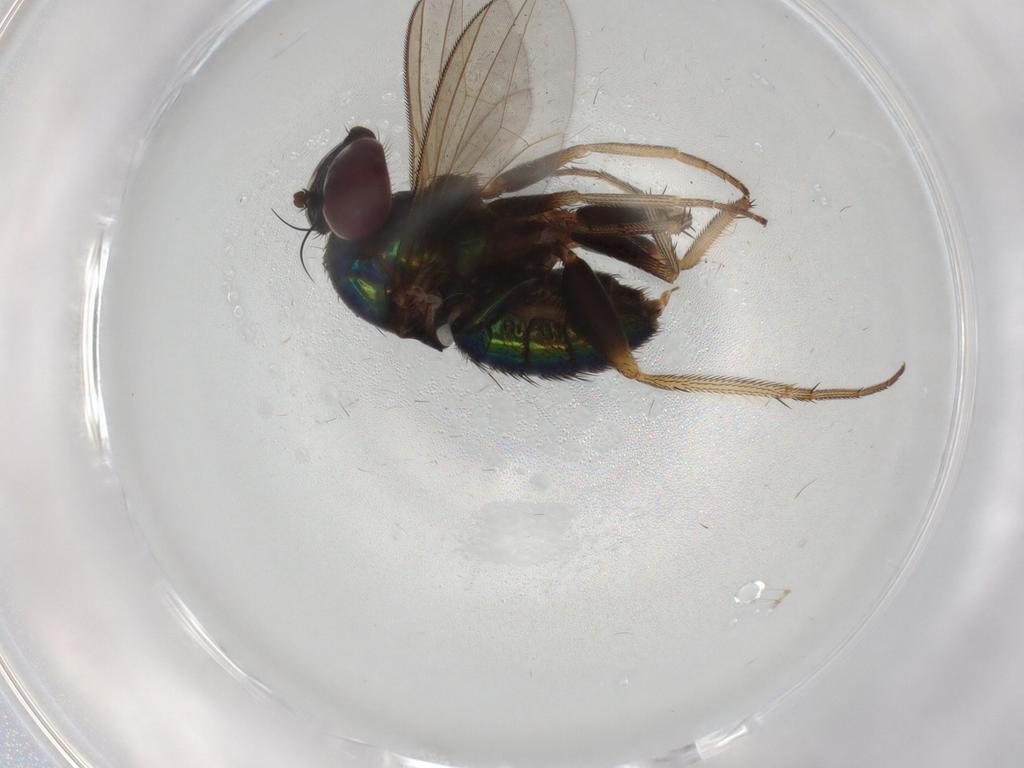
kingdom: Animalia
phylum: Arthropoda
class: Insecta
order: Diptera
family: Dolichopodidae
